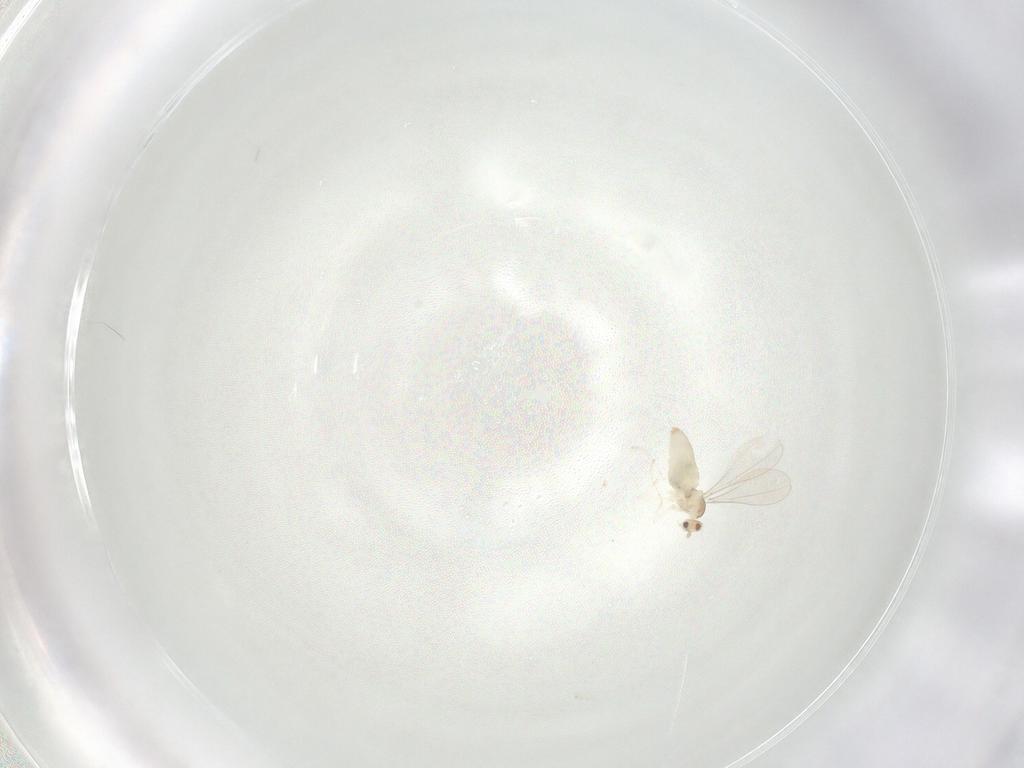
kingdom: Animalia
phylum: Arthropoda
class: Insecta
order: Diptera
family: Cecidomyiidae
